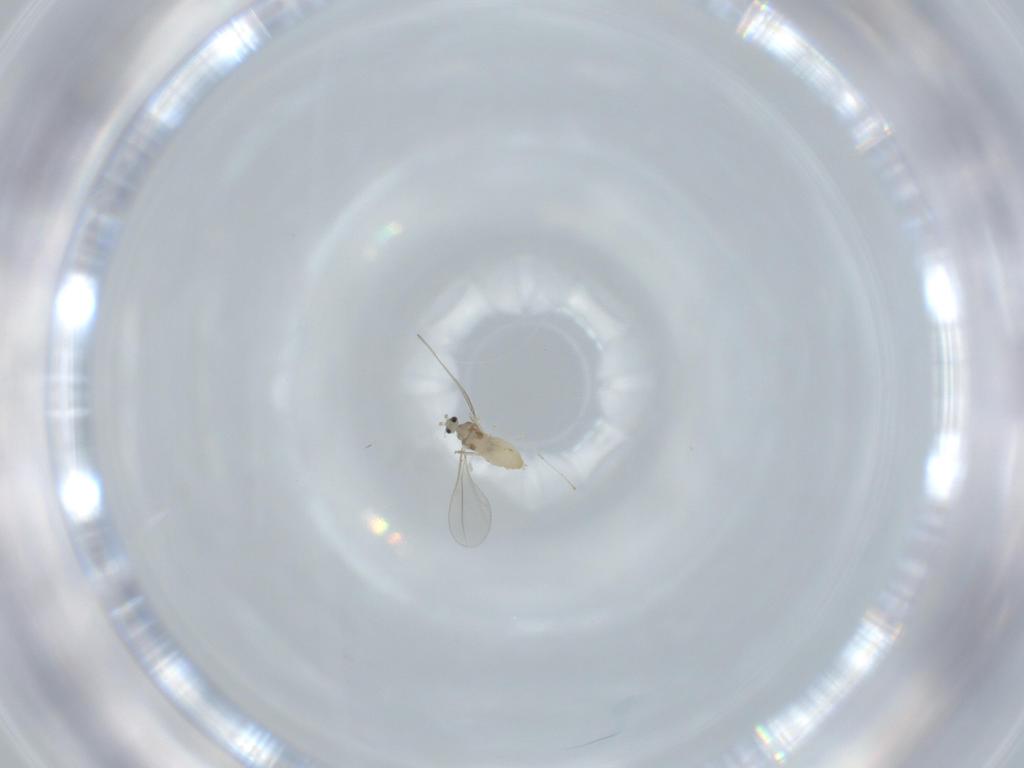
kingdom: Animalia
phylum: Arthropoda
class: Insecta
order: Diptera
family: Cecidomyiidae
